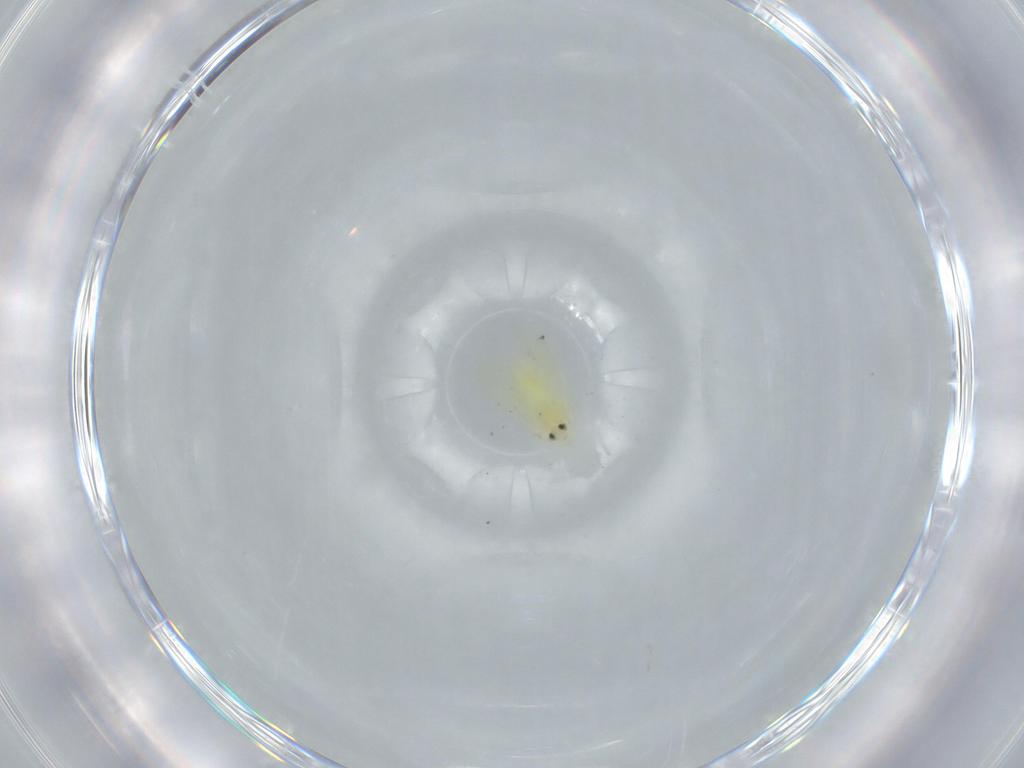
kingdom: Animalia
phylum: Arthropoda
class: Insecta
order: Hemiptera
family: Aleyrodidae
